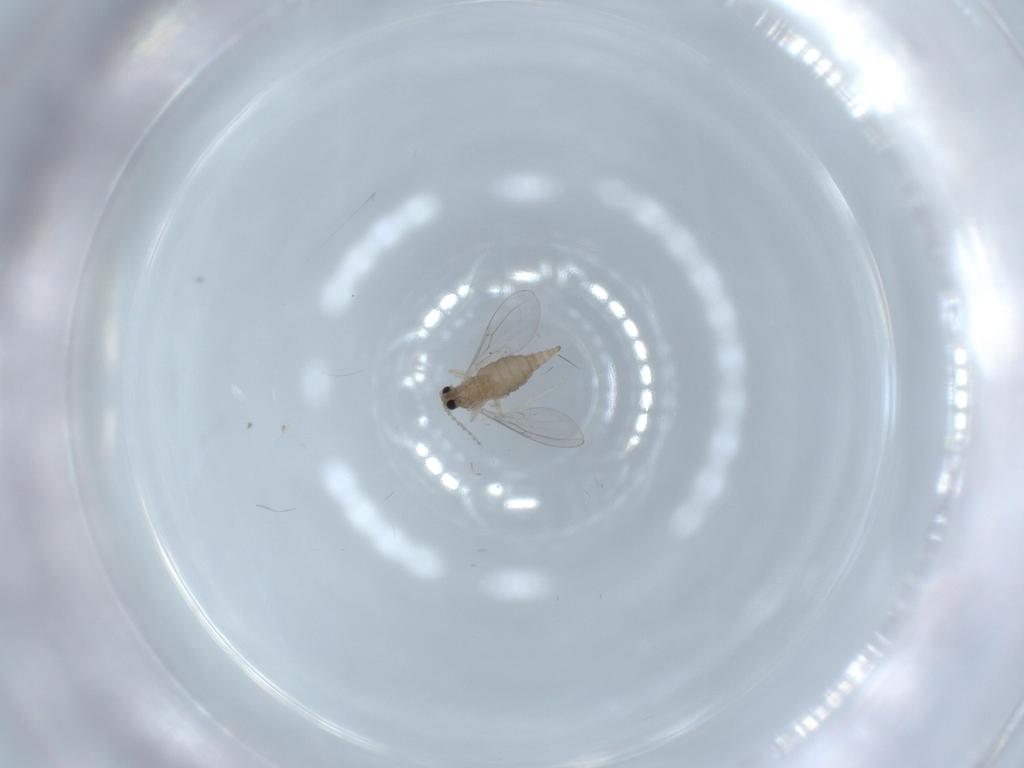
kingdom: Animalia
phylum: Arthropoda
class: Insecta
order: Diptera
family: Cecidomyiidae
